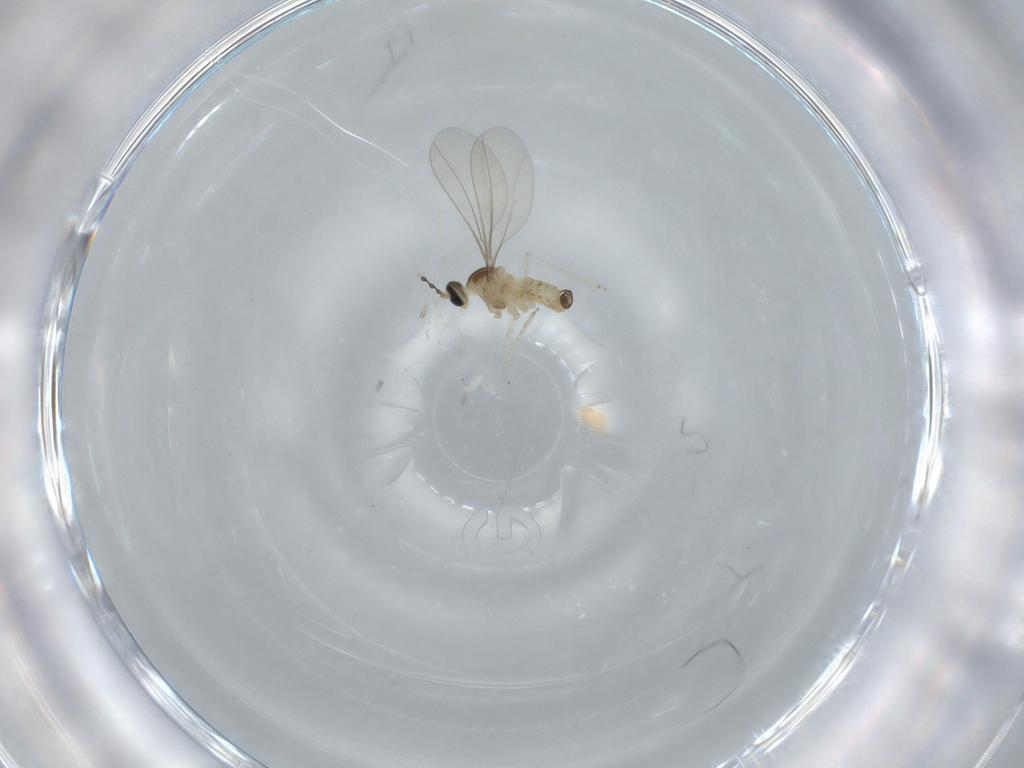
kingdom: Animalia
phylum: Arthropoda
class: Insecta
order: Diptera
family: Cecidomyiidae
